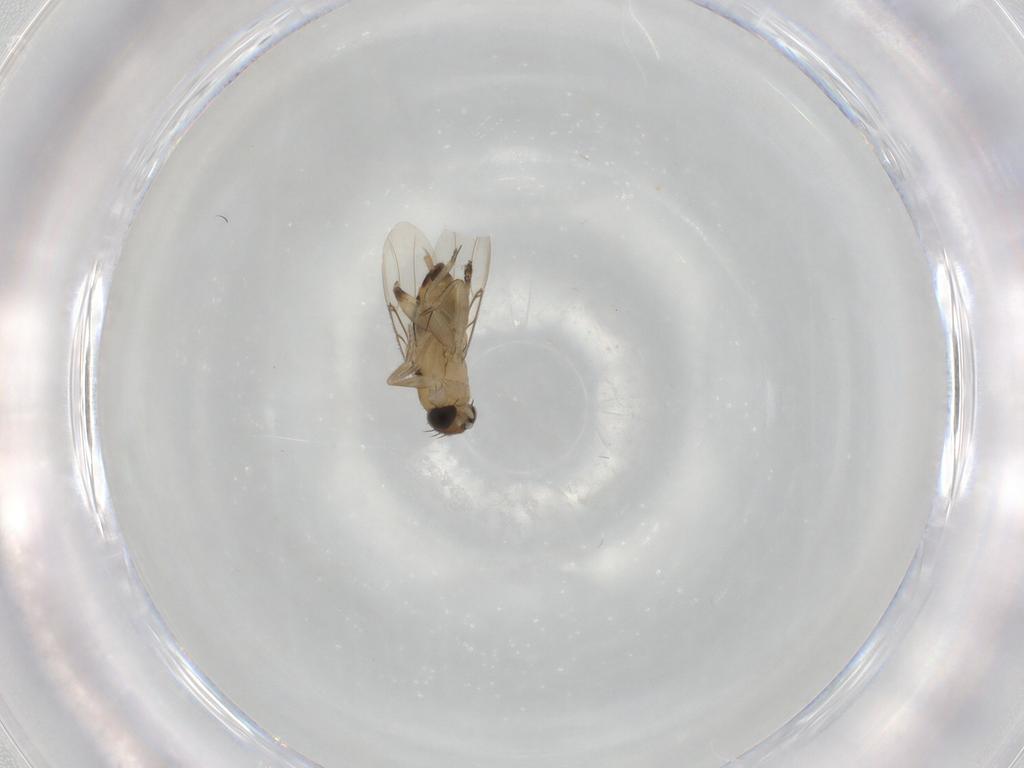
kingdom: Animalia
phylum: Arthropoda
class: Insecta
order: Diptera
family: Phoridae
